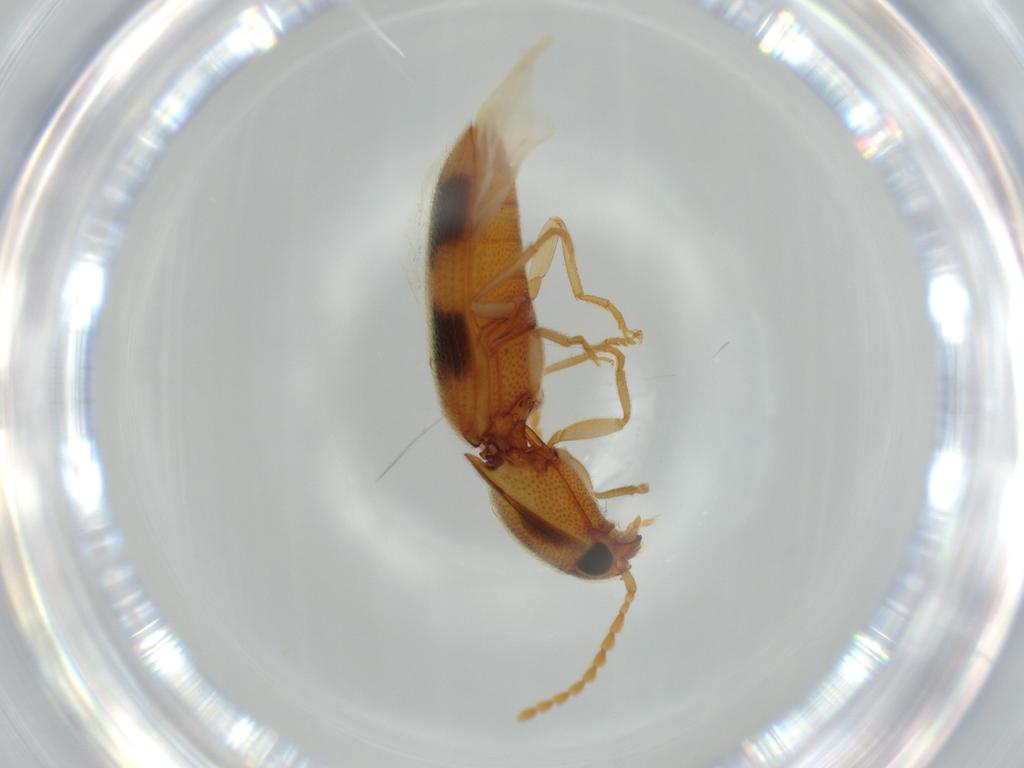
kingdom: Animalia
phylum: Arthropoda
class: Insecta
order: Coleoptera
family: Elateridae
